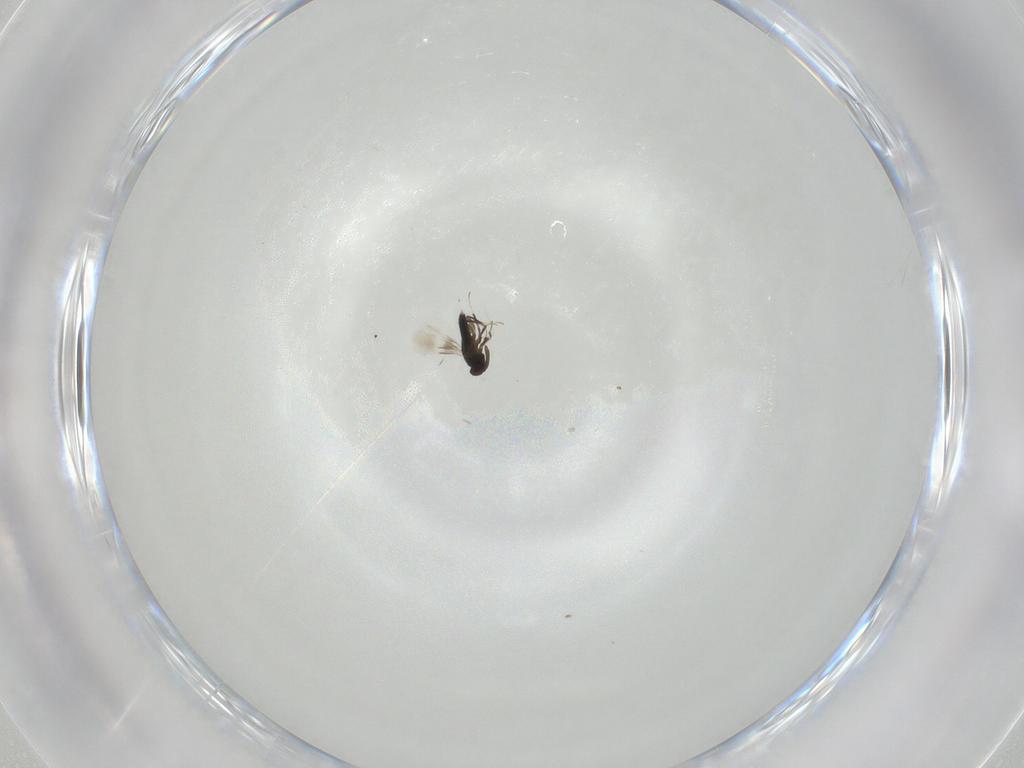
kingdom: Animalia
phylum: Arthropoda
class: Insecta
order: Hymenoptera
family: Signiphoridae
